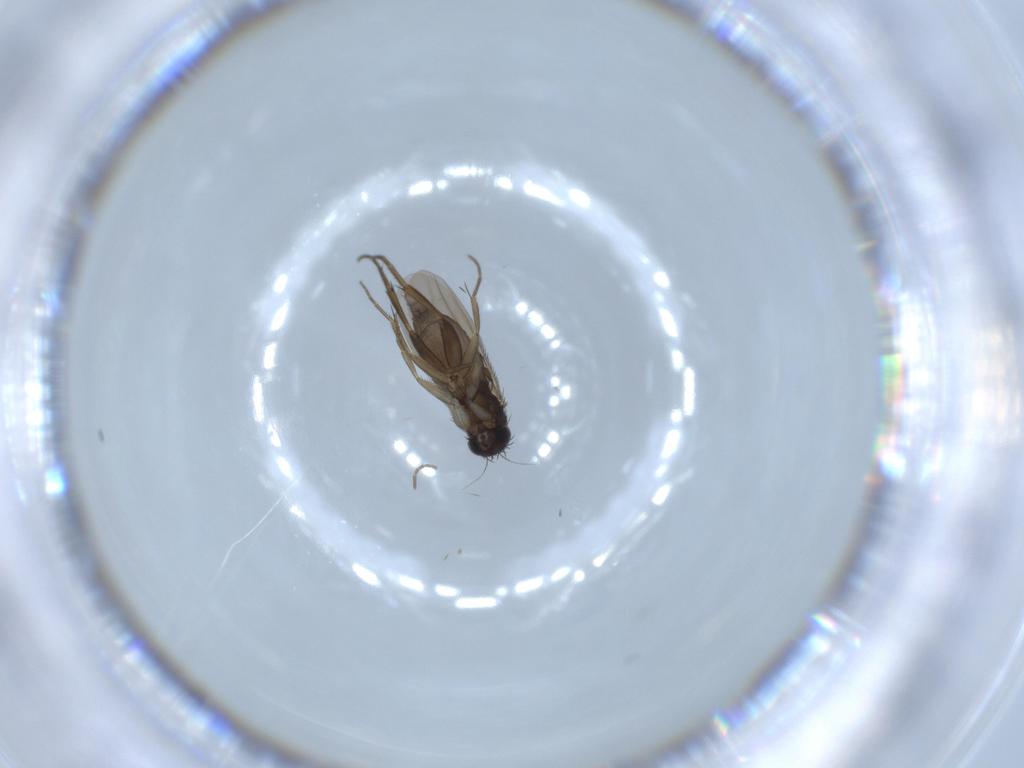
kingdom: Animalia
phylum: Arthropoda
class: Insecta
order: Diptera
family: Phoridae
